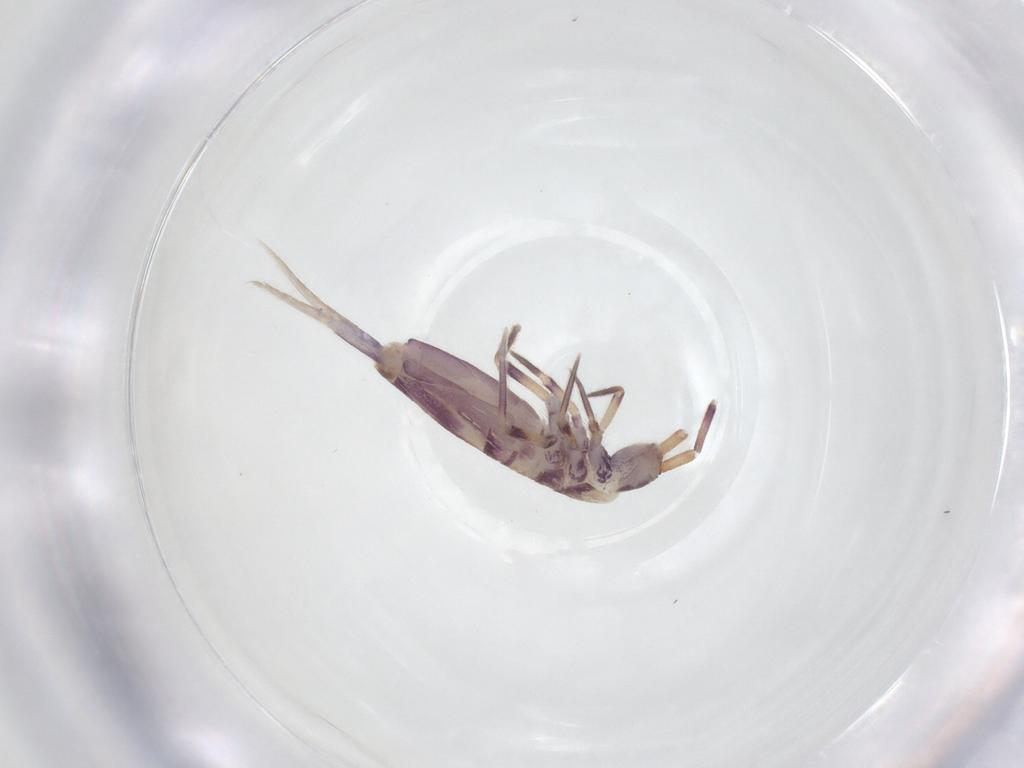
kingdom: Animalia
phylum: Arthropoda
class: Collembola
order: Entomobryomorpha
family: Entomobryidae
